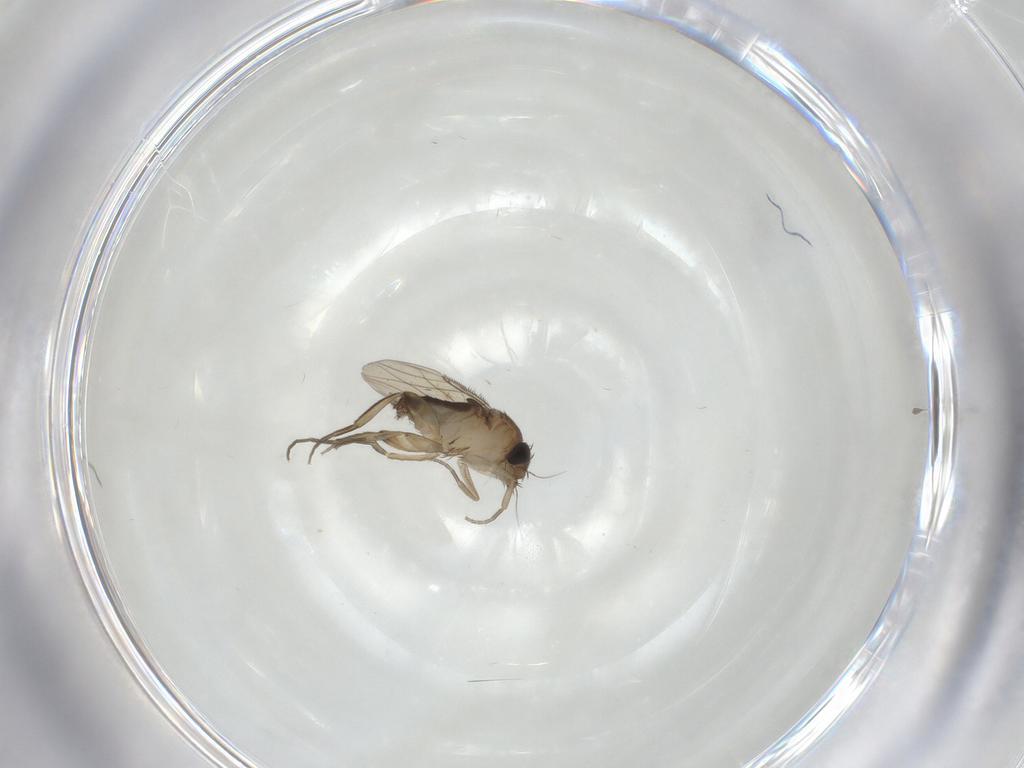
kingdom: Animalia
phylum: Arthropoda
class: Insecta
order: Diptera
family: Phoridae
